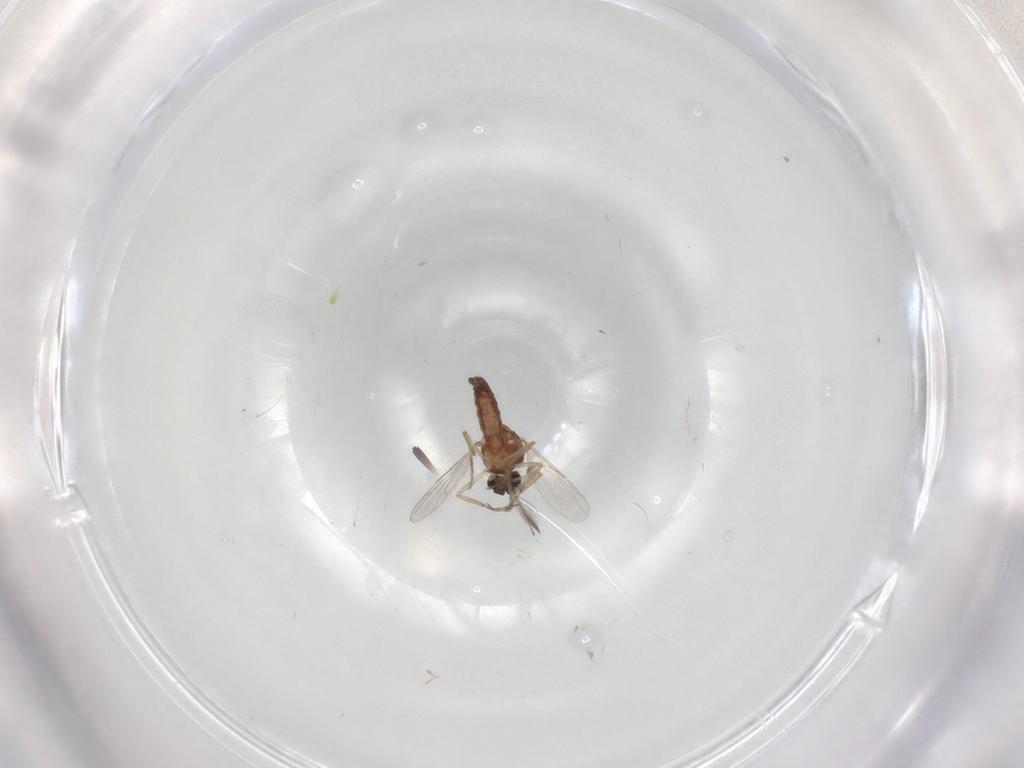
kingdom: Animalia
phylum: Arthropoda
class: Insecta
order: Diptera
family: Ceratopogonidae
